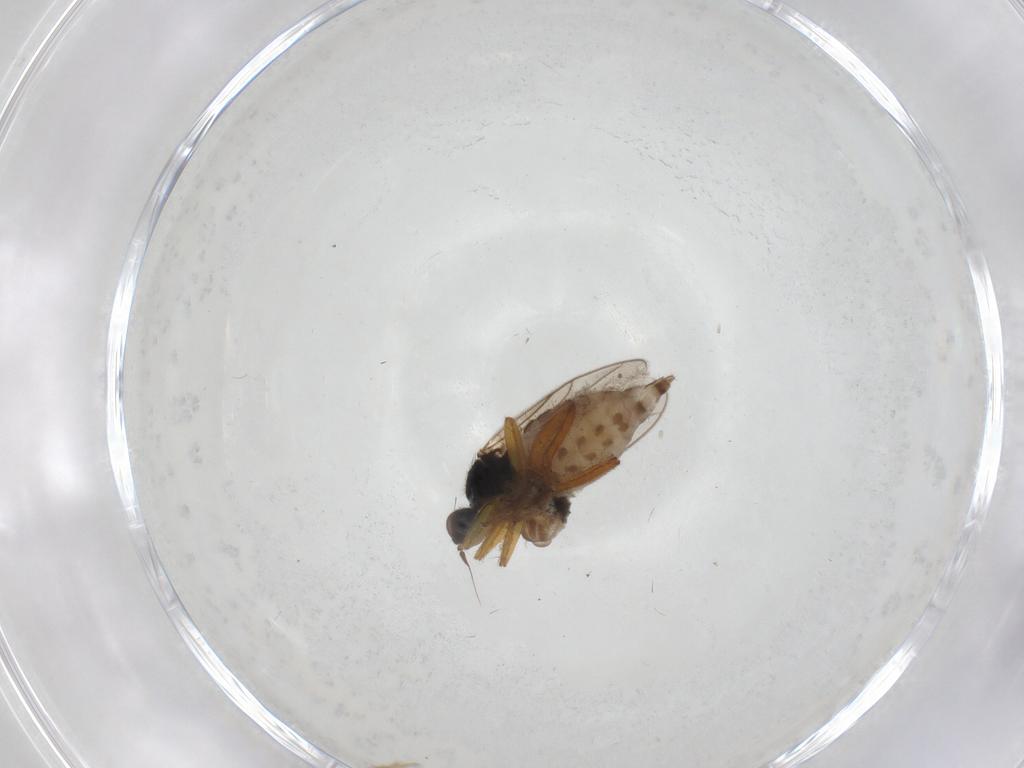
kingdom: Animalia
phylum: Arthropoda
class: Insecta
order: Diptera
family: Hybotidae
